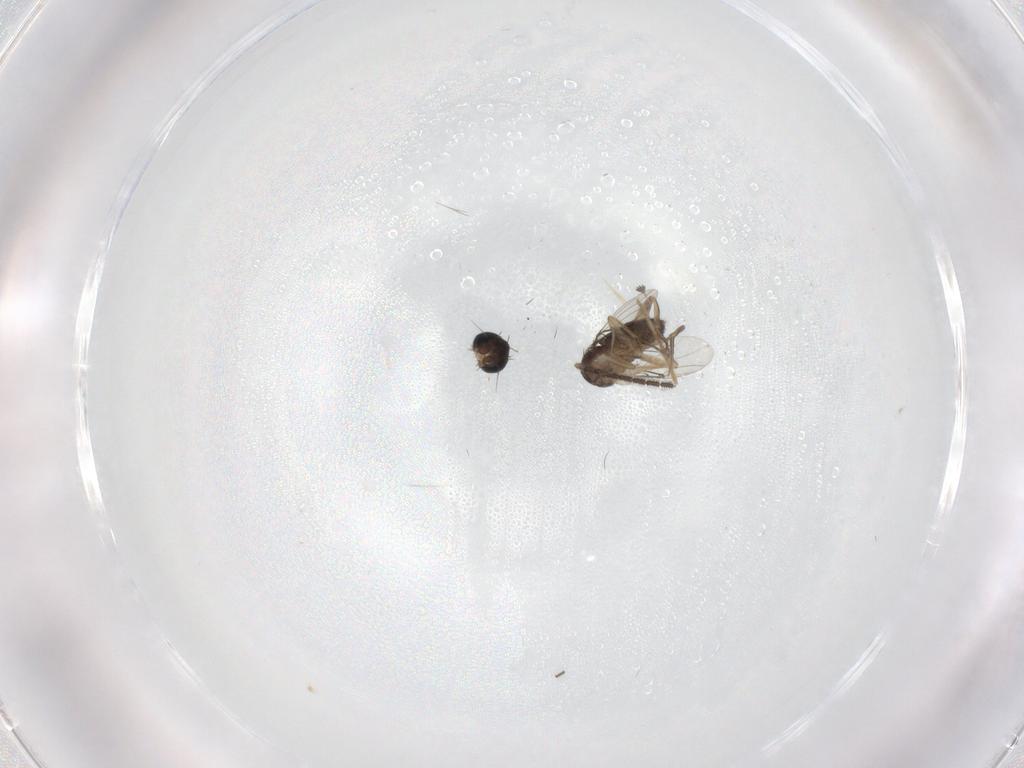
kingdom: Animalia
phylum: Arthropoda
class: Insecta
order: Diptera
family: Sciaridae
